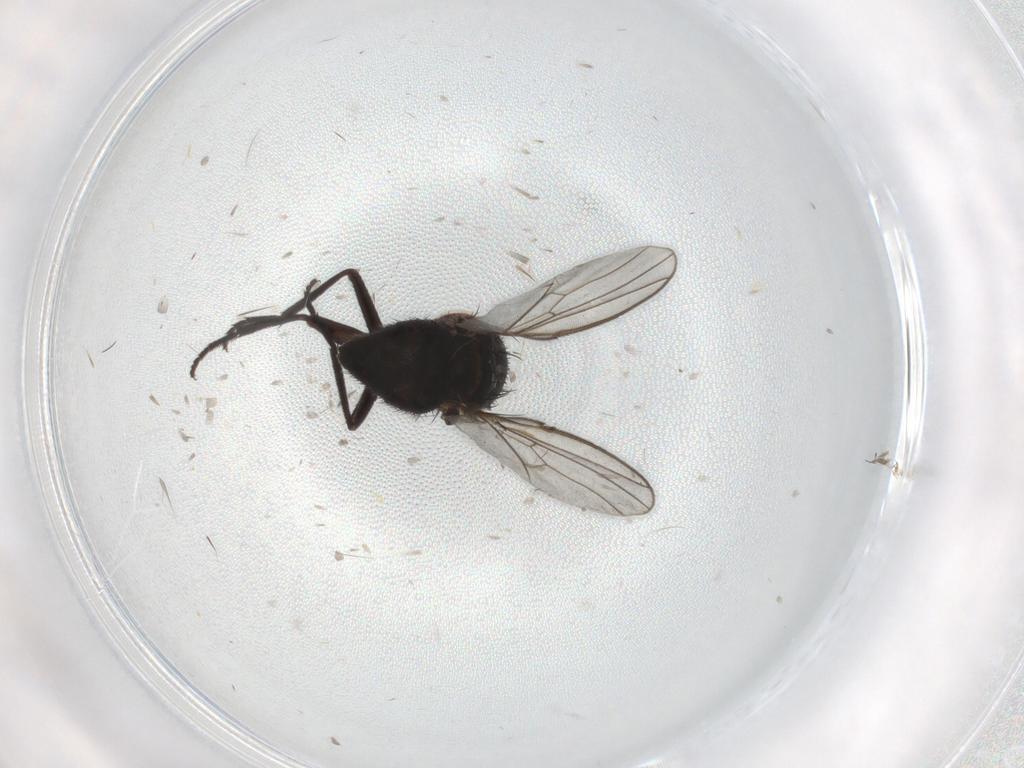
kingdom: Animalia
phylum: Arthropoda
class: Insecta
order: Diptera
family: Agromyzidae
